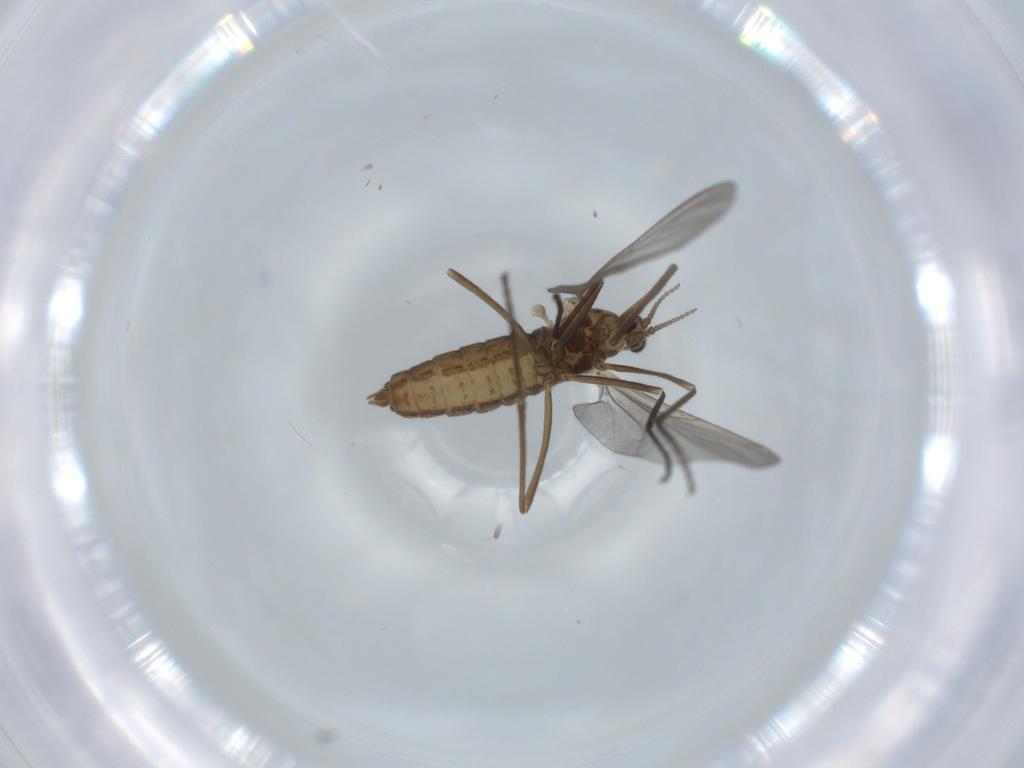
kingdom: Animalia
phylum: Arthropoda
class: Insecta
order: Diptera
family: Cecidomyiidae
